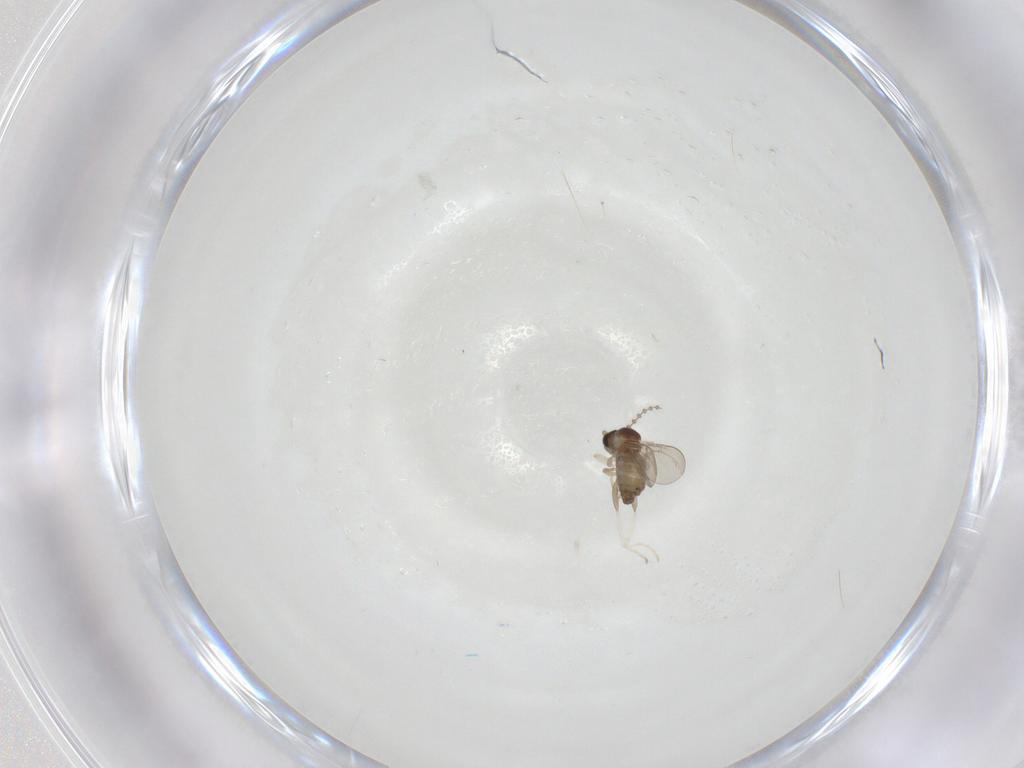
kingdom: Animalia
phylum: Arthropoda
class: Insecta
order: Diptera
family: Cecidomyiidae
